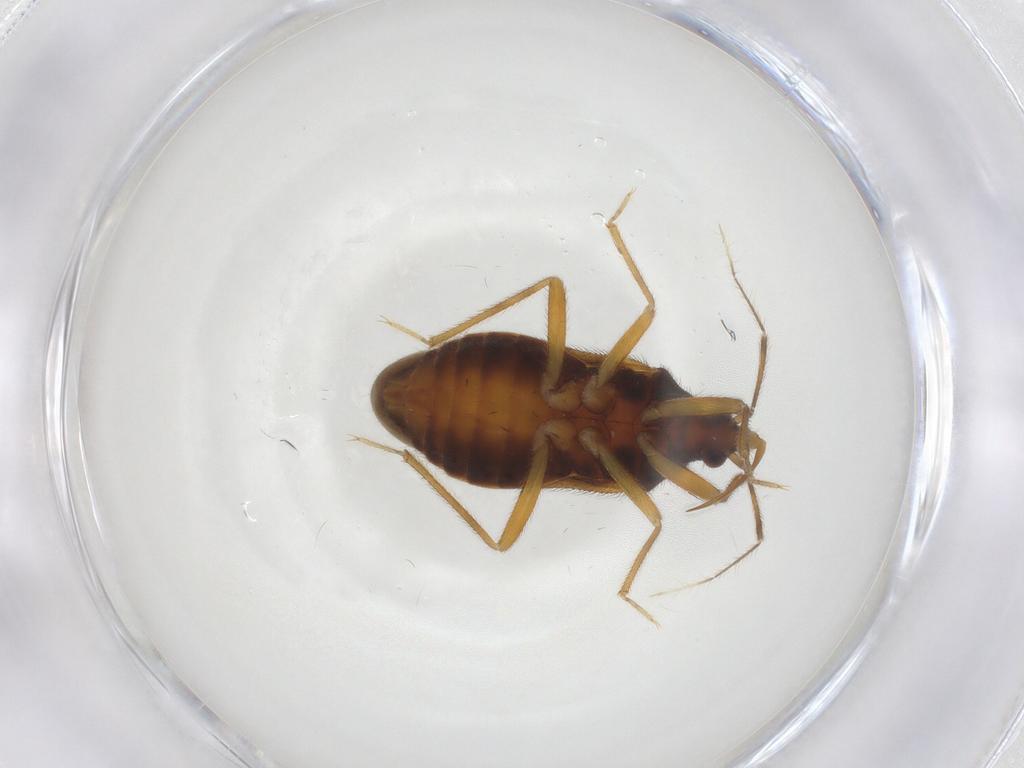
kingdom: Animalia
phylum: Arthropoda
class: Insecta
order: Hemiptera
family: Anthocoridae
